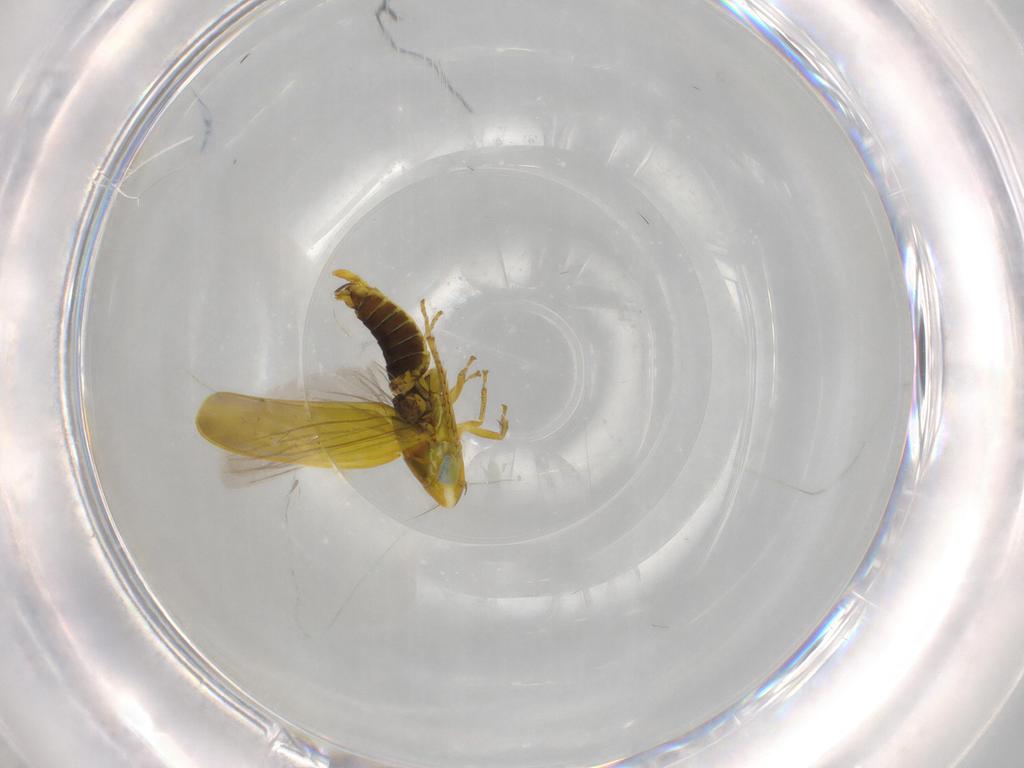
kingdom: Animalia
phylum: Arthropoda
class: Insecta
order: Hemiptera
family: Cicadellidae
